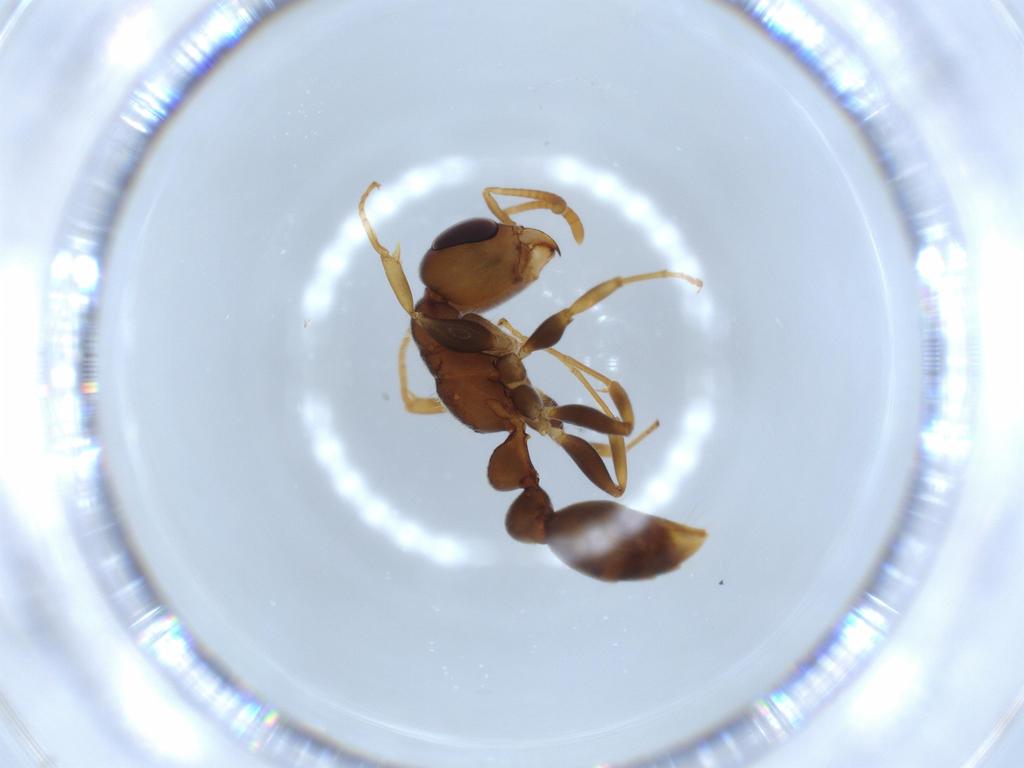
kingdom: Animalia
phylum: Arthropoda
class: Insecta
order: Hymenoptera
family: Formicidae
